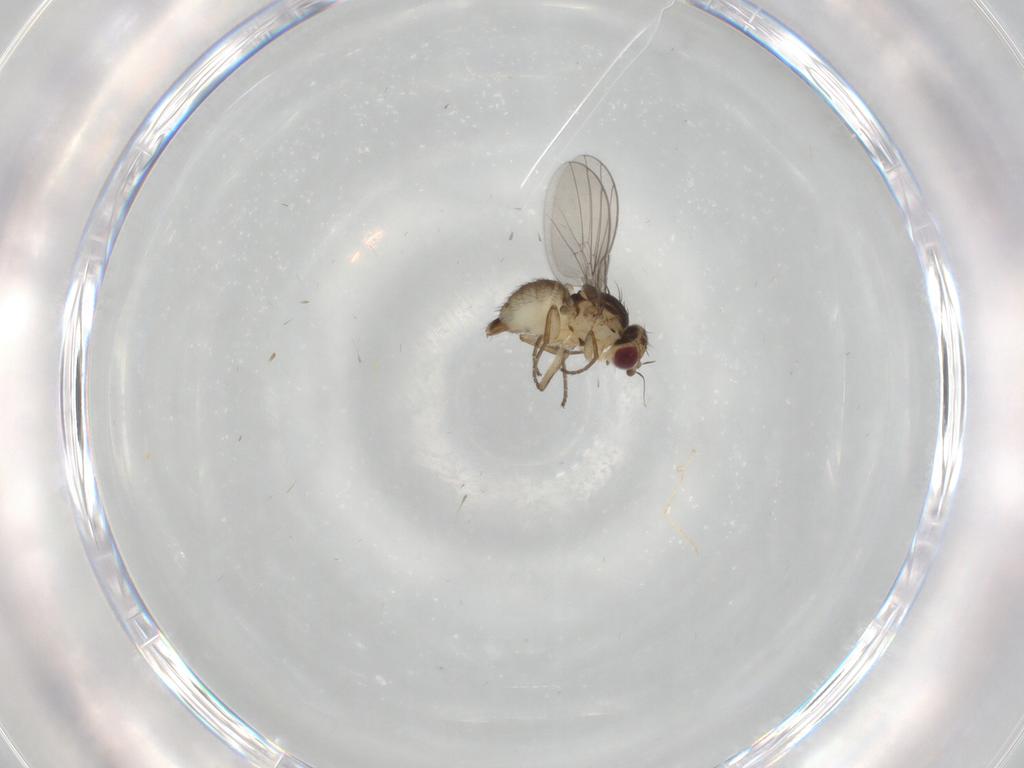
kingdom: Animalia
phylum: Arthropoda
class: Insecta
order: Diptera
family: Agromyzidae
